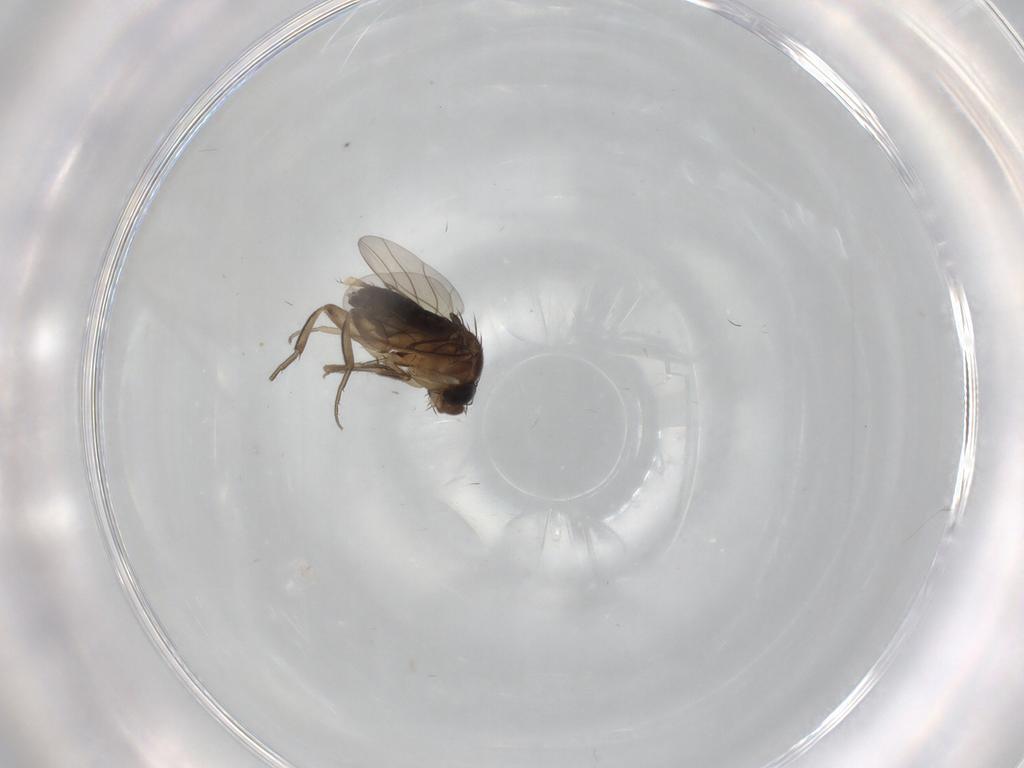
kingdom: Animalia
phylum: Arthropoda
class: Insecta
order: Diptera
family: Phoridae
